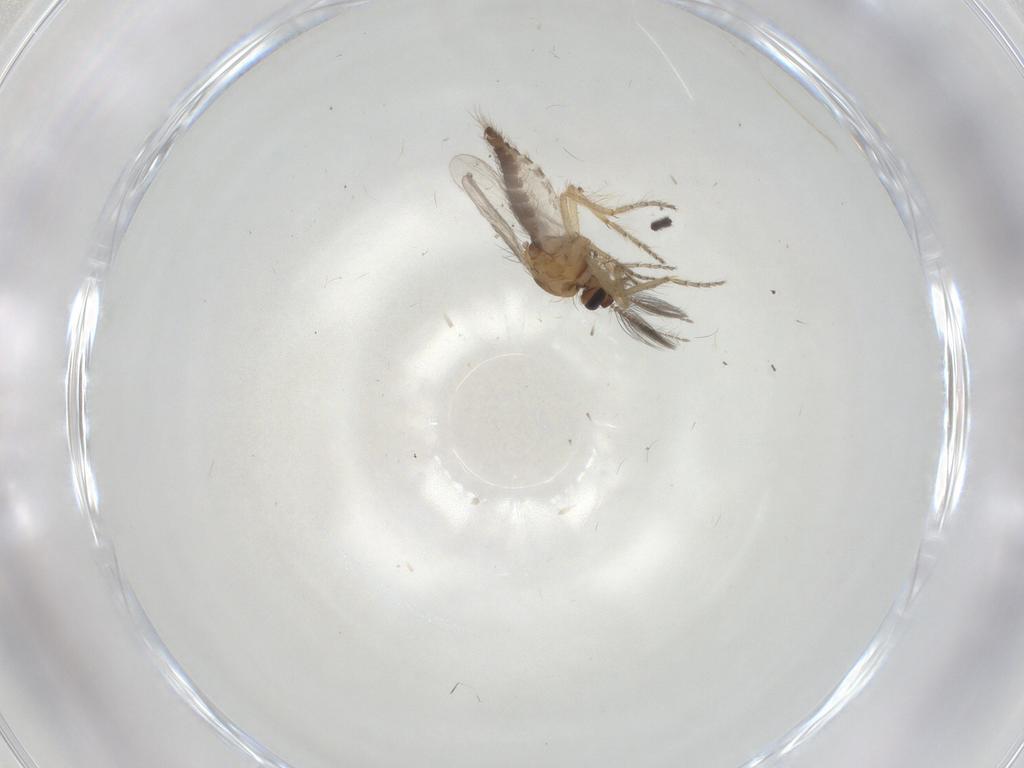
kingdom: Animalia
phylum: Arthropoda
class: Insecta
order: Diptera
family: Ceratopogonidae
